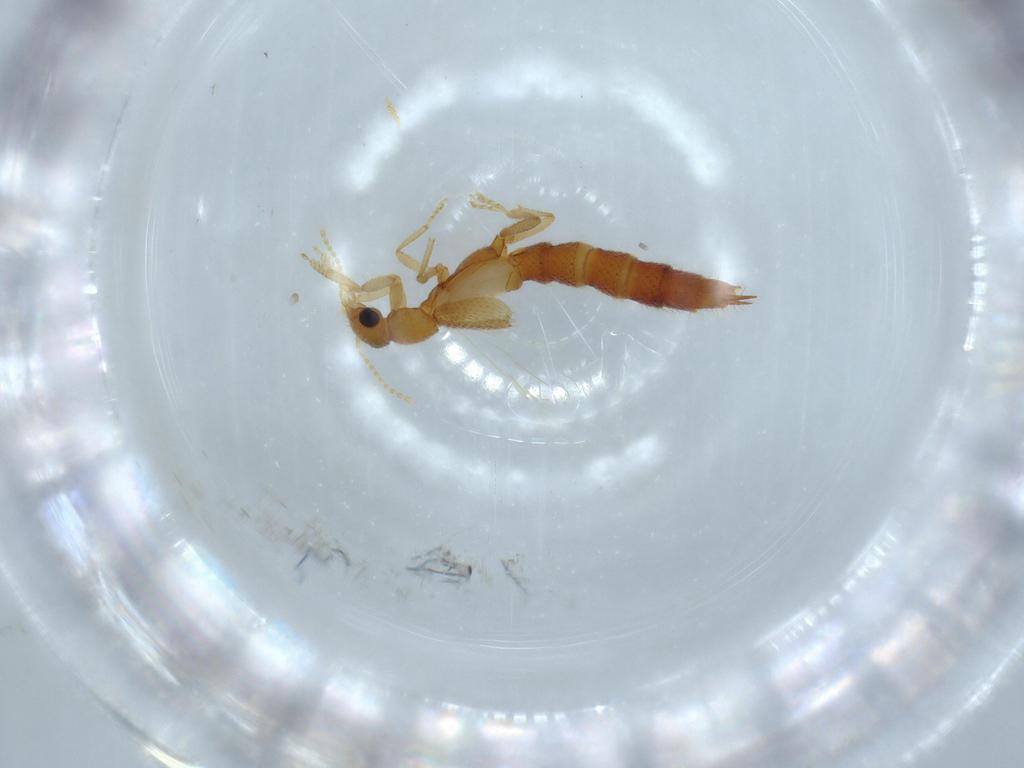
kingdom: Animalia
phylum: Arthropoda
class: Insecta
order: Coleoptera
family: Staphylinidae
